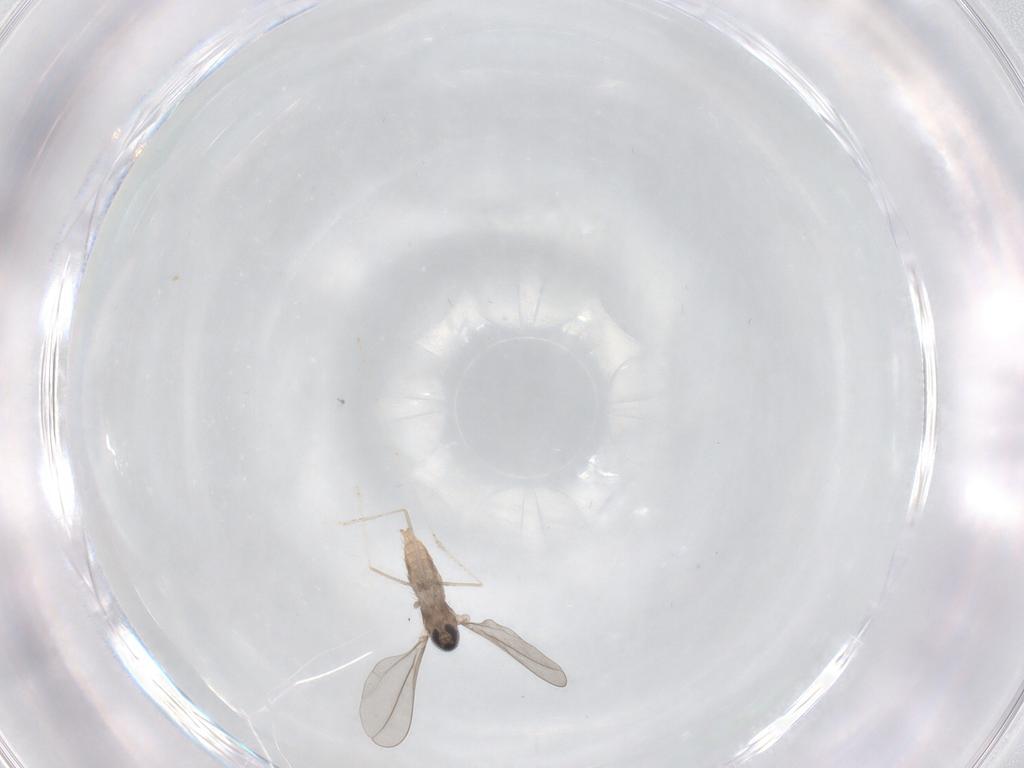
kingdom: Animalia
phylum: Arthropoda
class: Insecta
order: Diptera
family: Cecidomyiidae
